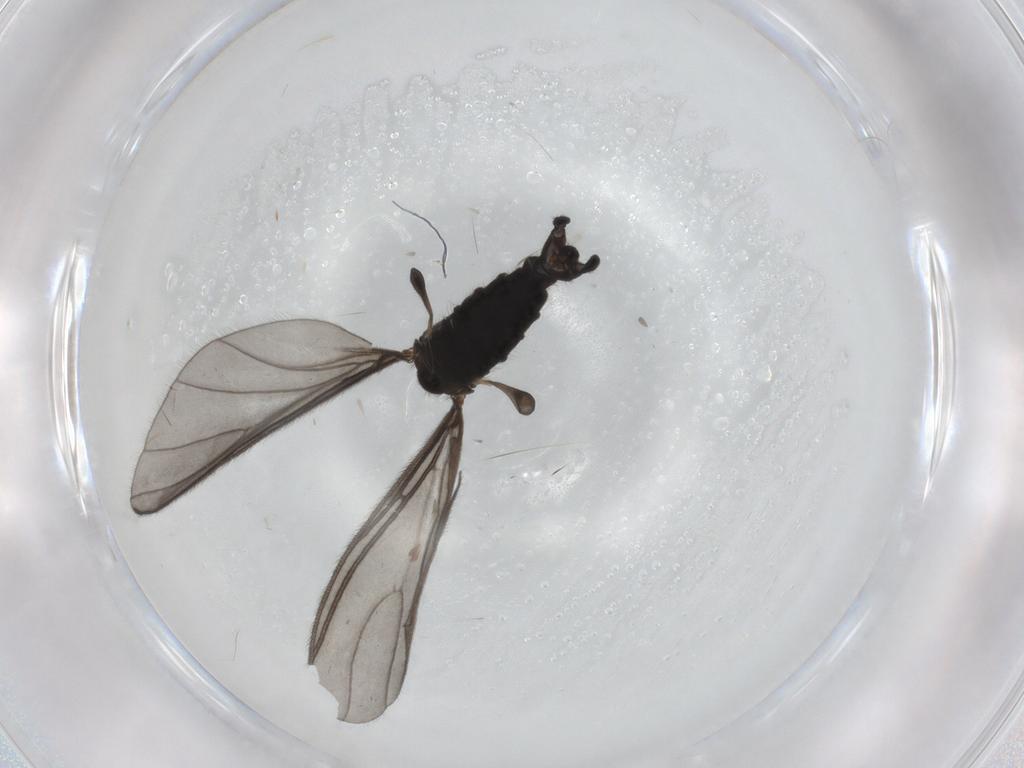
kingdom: Animalia
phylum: Arthropoda
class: Insecta
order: Diptera
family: Sciaridae
